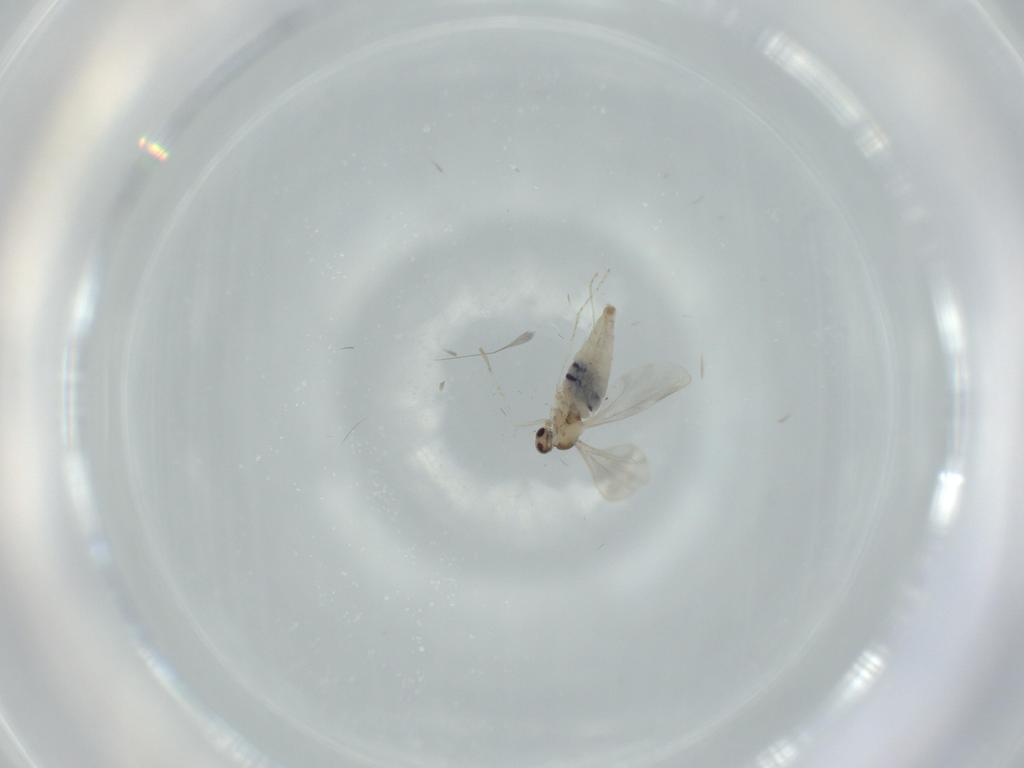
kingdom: Animalia
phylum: Arthropoda
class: Insecta
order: Diptera
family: Cecidomyiidae
